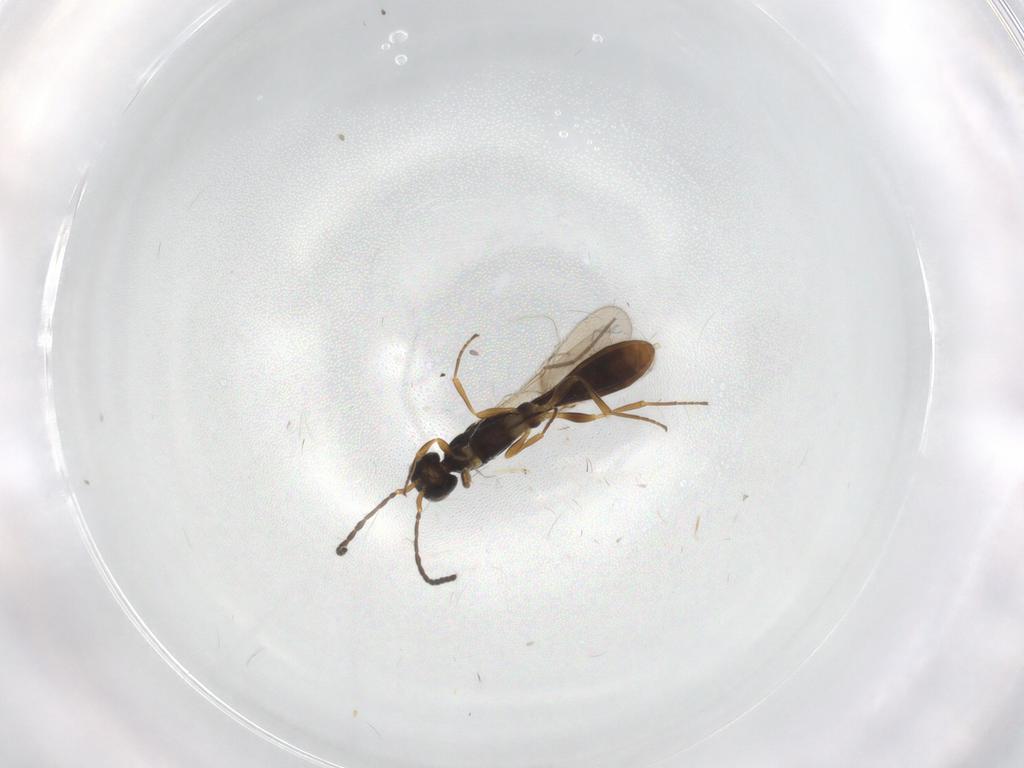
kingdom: Animalia
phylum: Arthropoda
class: Insecta
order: Hymenoptera
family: Scelionidae
